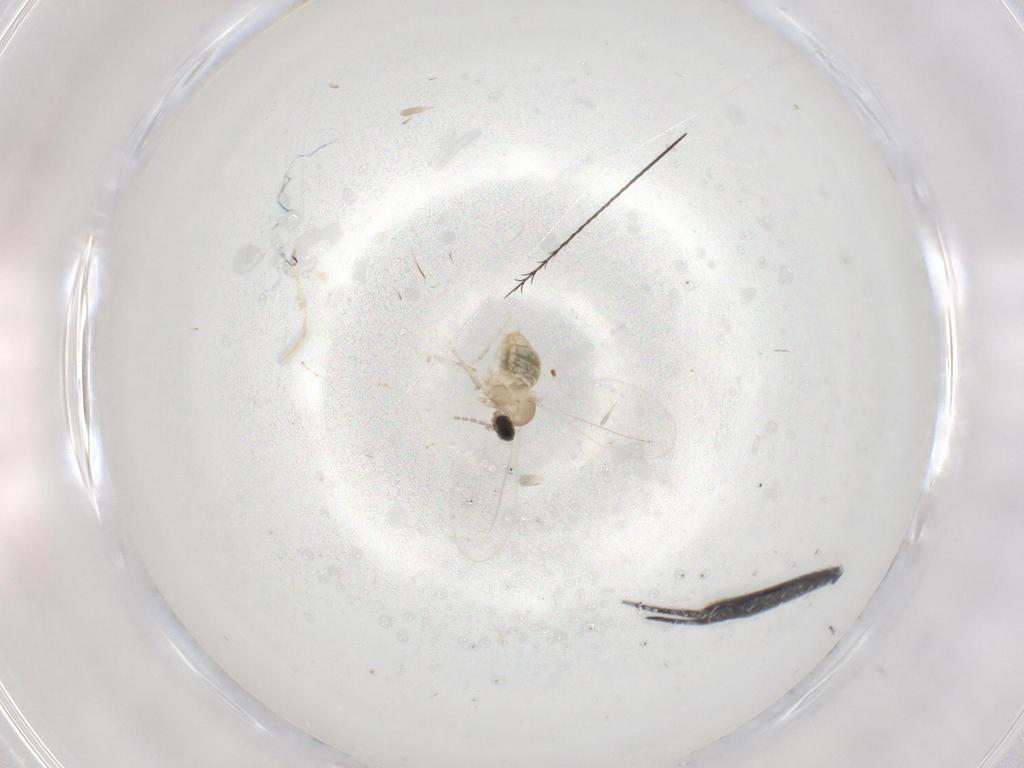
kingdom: Animalia
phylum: Arthropoda
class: Insecta
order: Diptera
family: Cecidomyiidae
